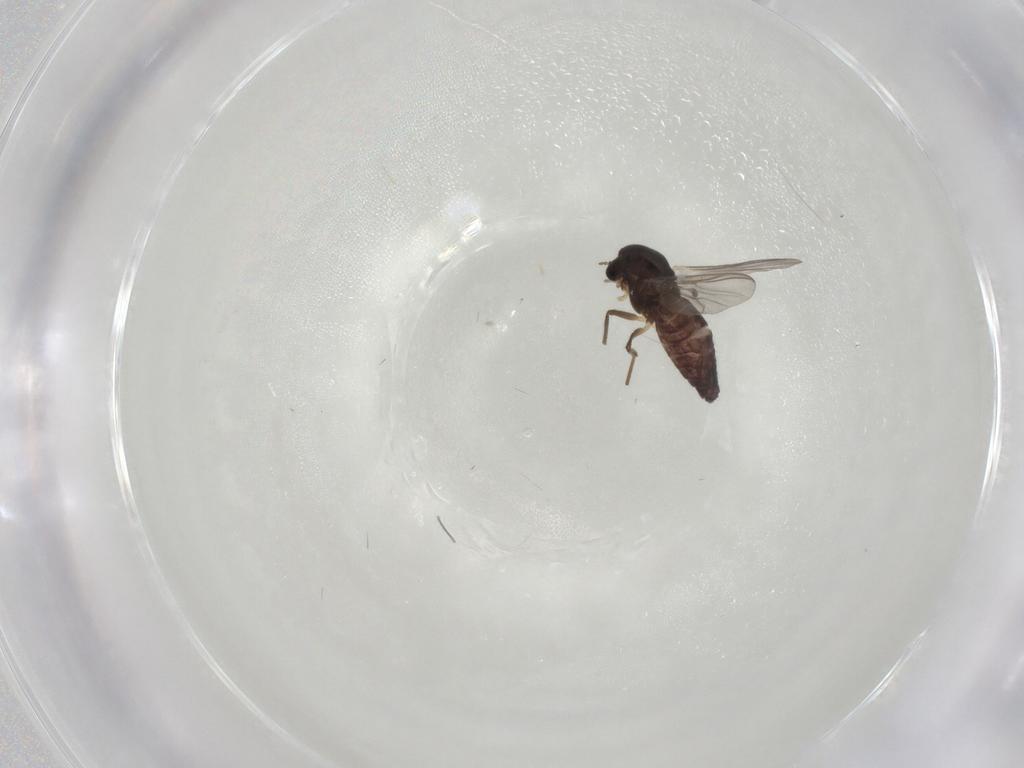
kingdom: Animalia
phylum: Arthropoda
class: Insecta
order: Diptera
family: Chironomidae
